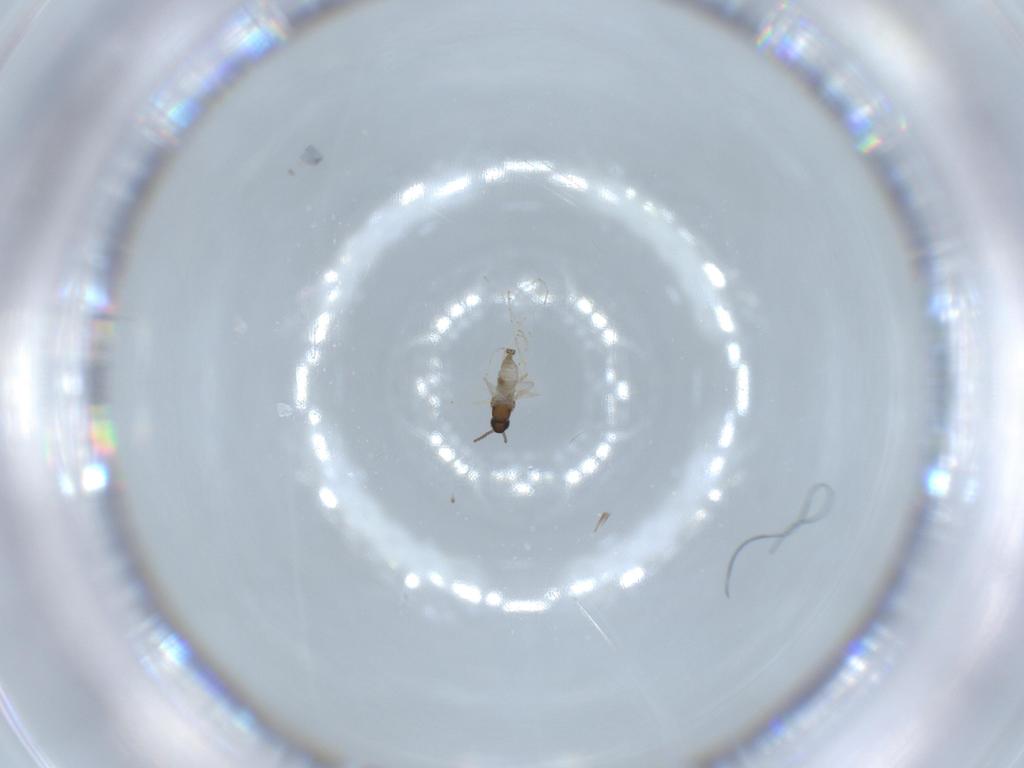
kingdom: Animalia
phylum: Arthropoda
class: Insecta
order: Diptera
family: Cecidomyiidae
